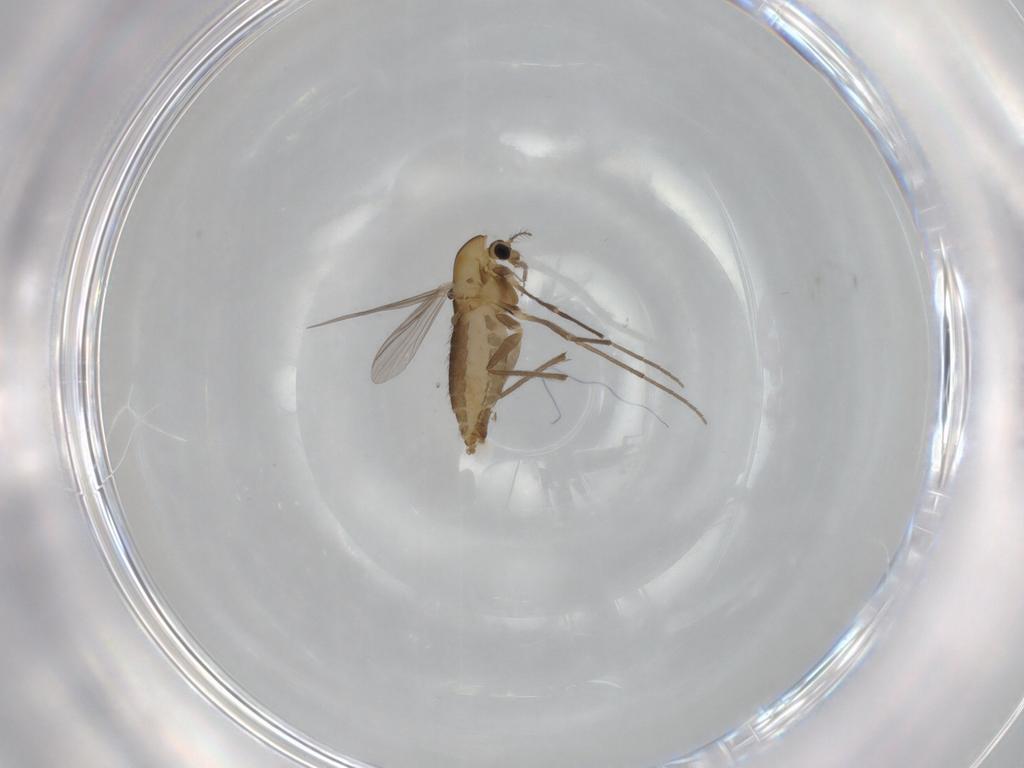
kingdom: Animalia
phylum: Arthropoda
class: Insecta
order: Diptera
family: Chironomidae
